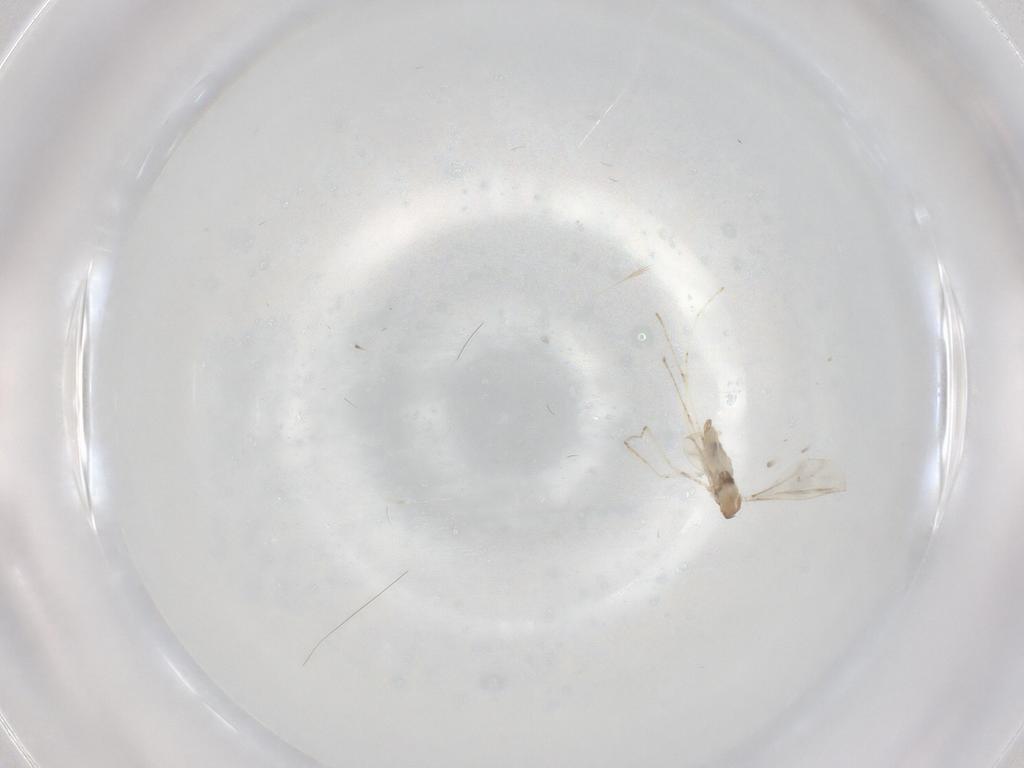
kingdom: Animalia
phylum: Arthropoda
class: Insecta
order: Diptera
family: Cecidomyiidae
